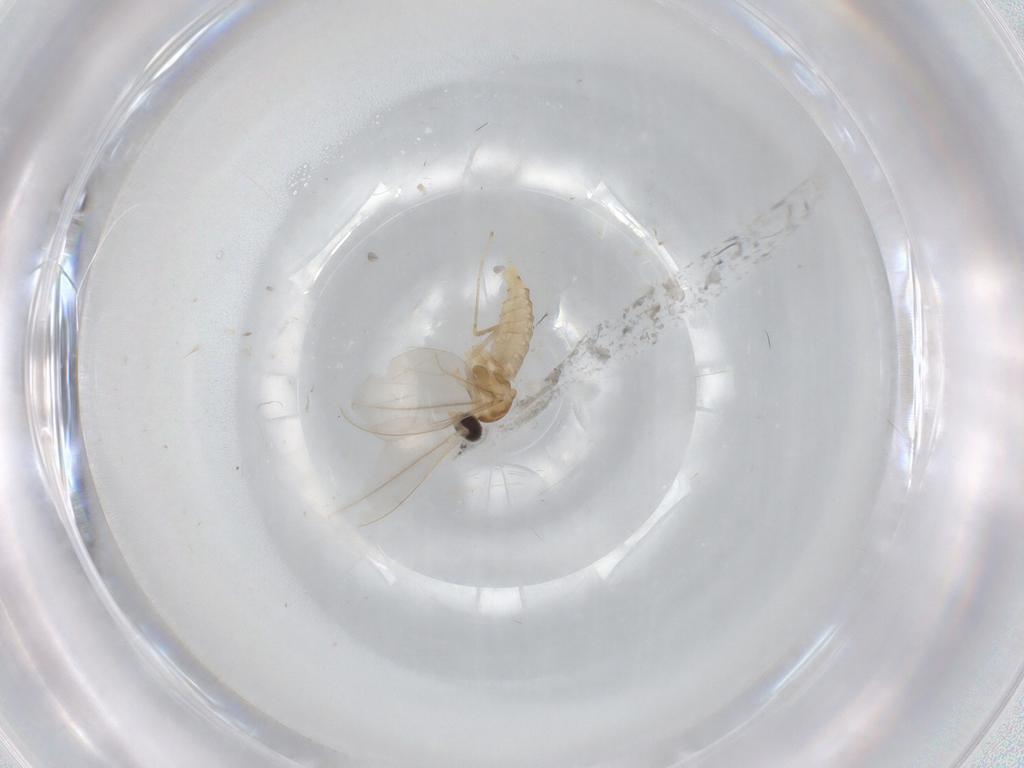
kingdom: Animalia
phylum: Arthropoda
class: Insecta
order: Diptera
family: Cecidomyiidae
